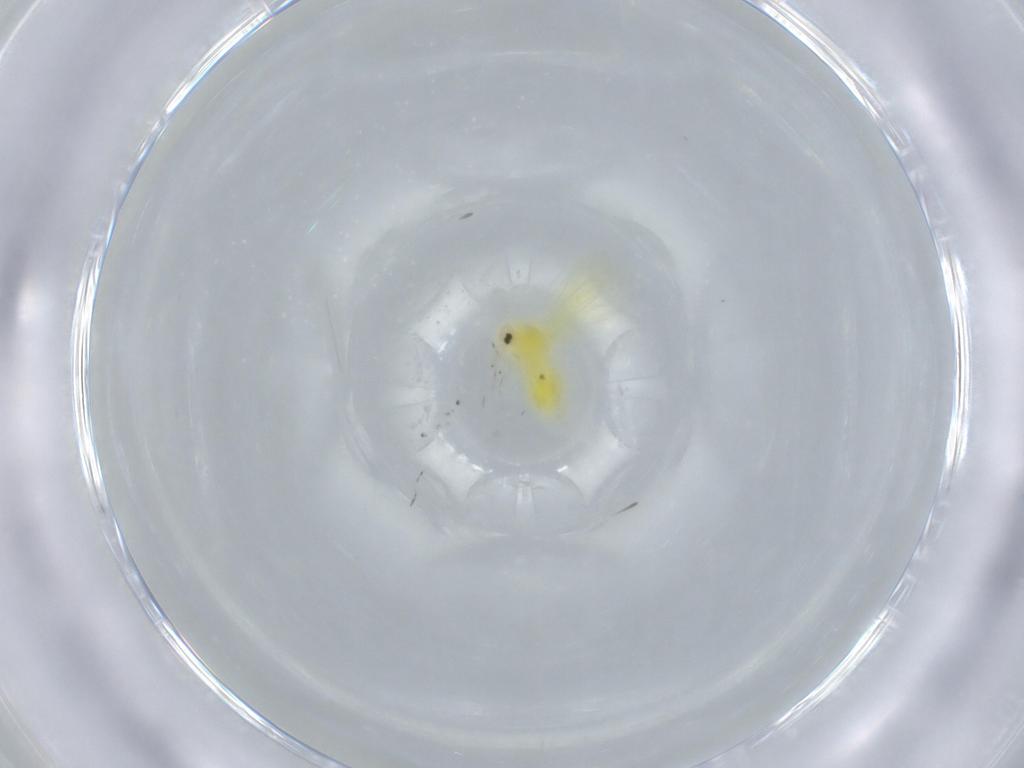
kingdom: Animalia
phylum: Arthropoda
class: Insecta
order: Hemiptera
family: Aleyrodidae
